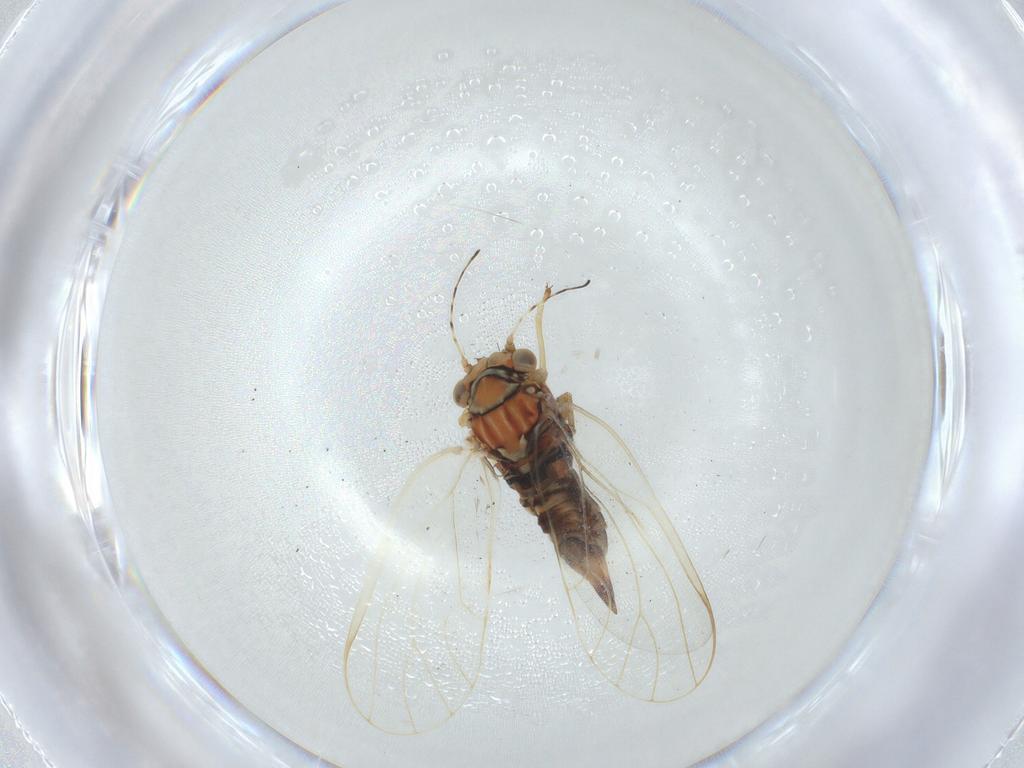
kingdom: Animalia
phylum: Arthropoda
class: Insecta
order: Hemiptera
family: Psyllidae
